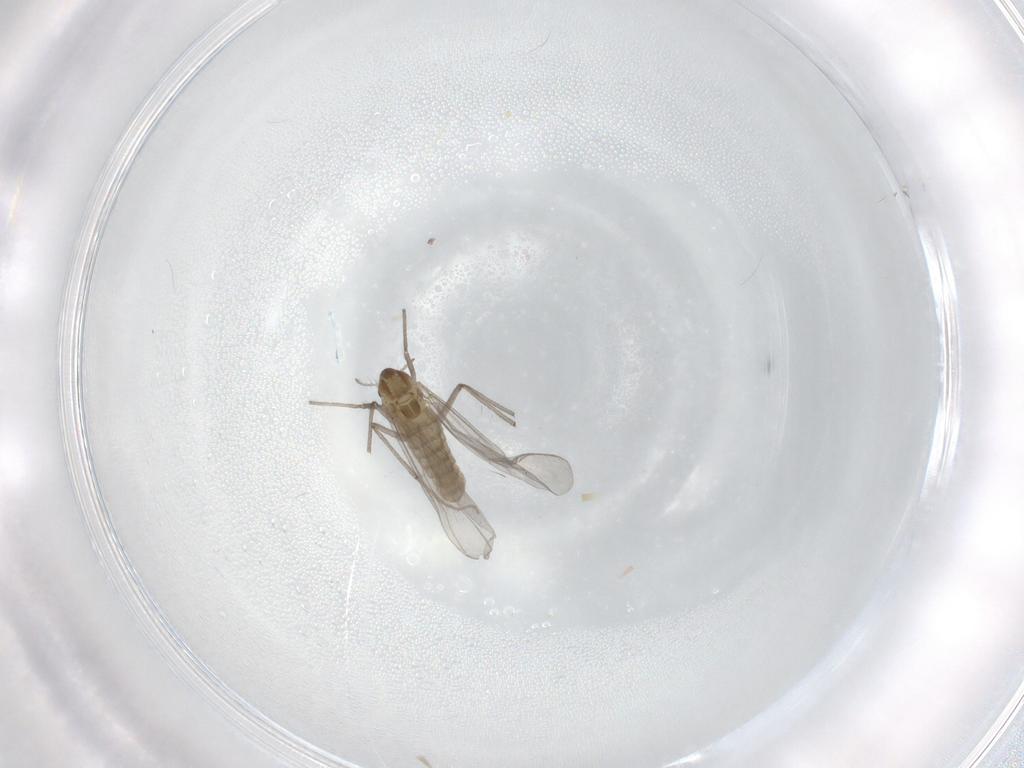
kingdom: Animalia
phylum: Arthropoda
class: Insecta
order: Diptera
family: Chironomidae
